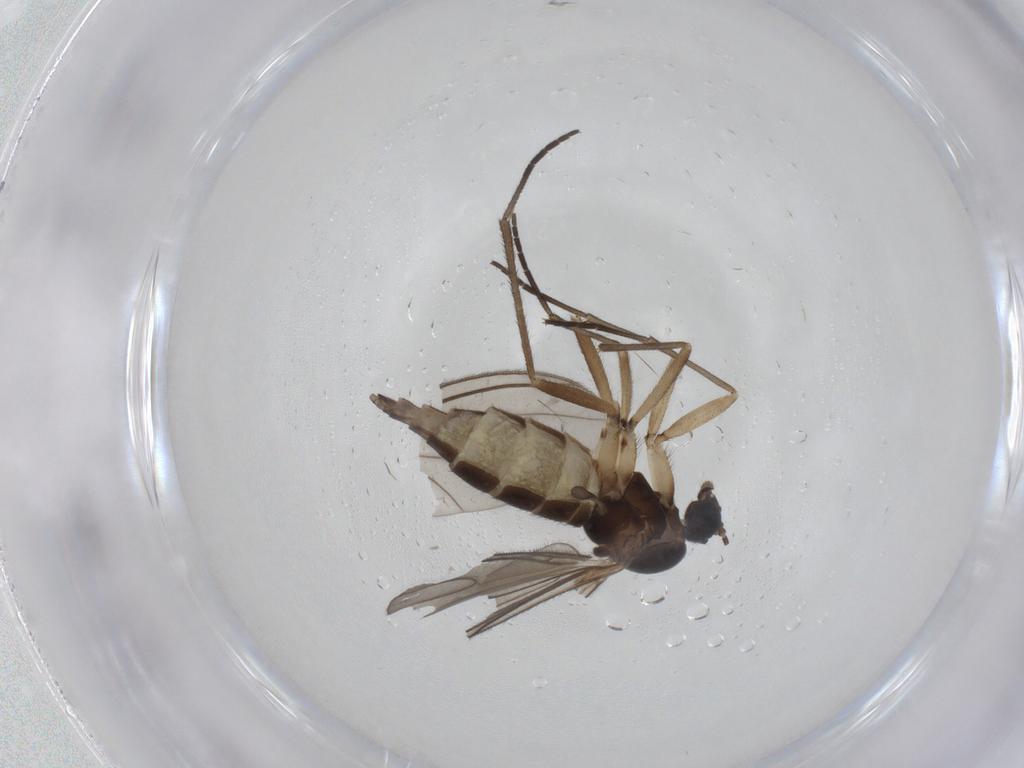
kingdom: Animalia
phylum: Arthropoda
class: Insecta
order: Diptera
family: Sciaridae
